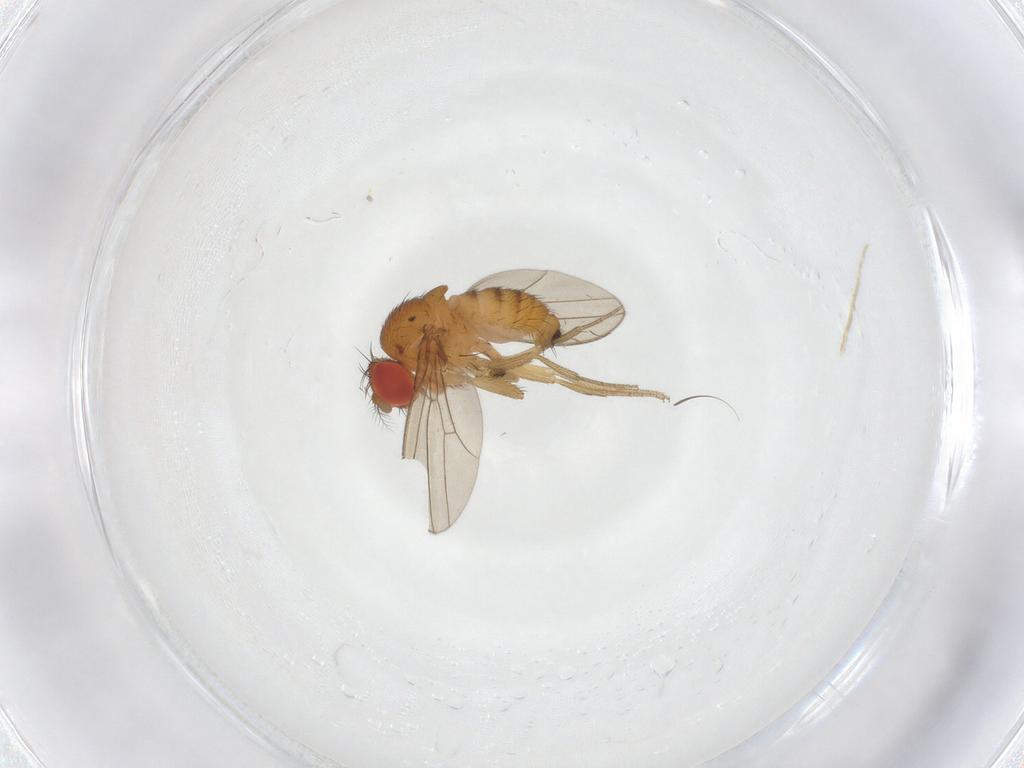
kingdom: Animalia
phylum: Arthropoda
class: Insecta
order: Diptera
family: Drosophilidae
